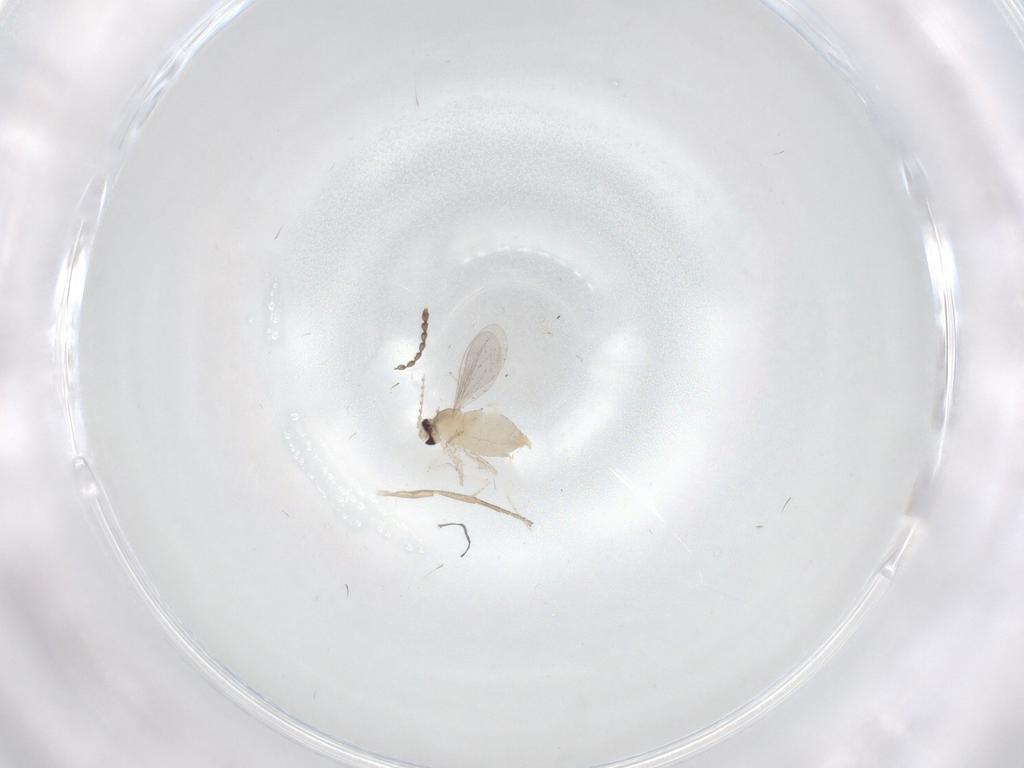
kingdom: Animalia
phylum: Arthropoda
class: Insecta
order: Diptera
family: Cecidomyiidae
